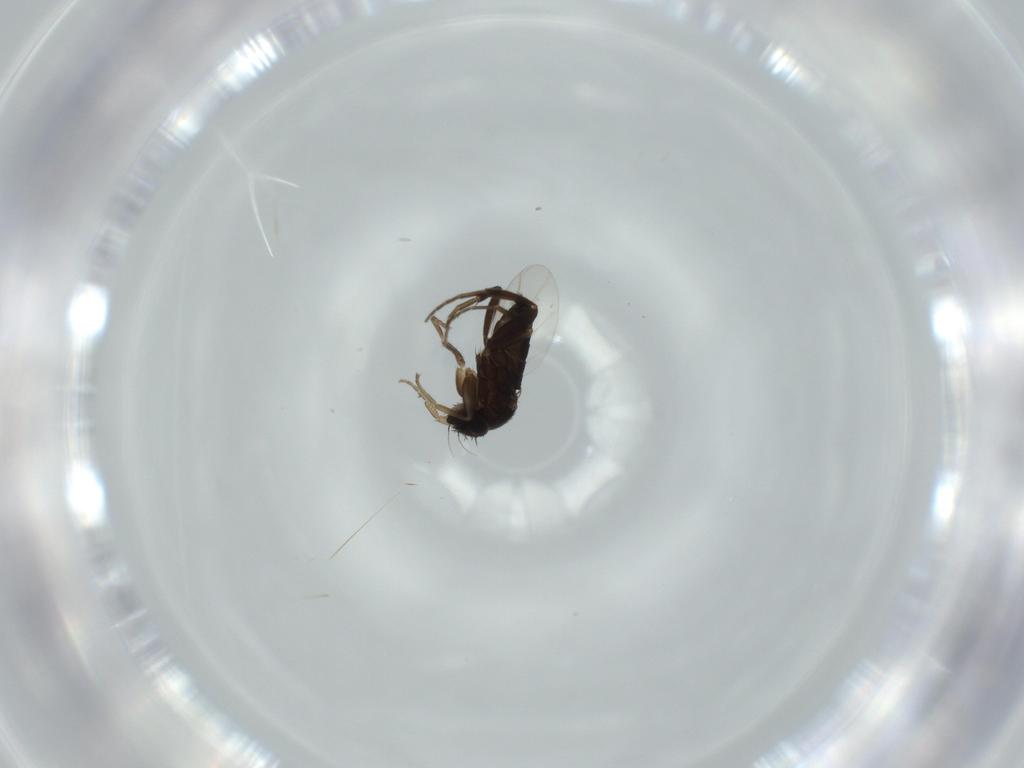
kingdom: Animalia
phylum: Arthropoda
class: Insecta
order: Diptera
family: Phoridae
